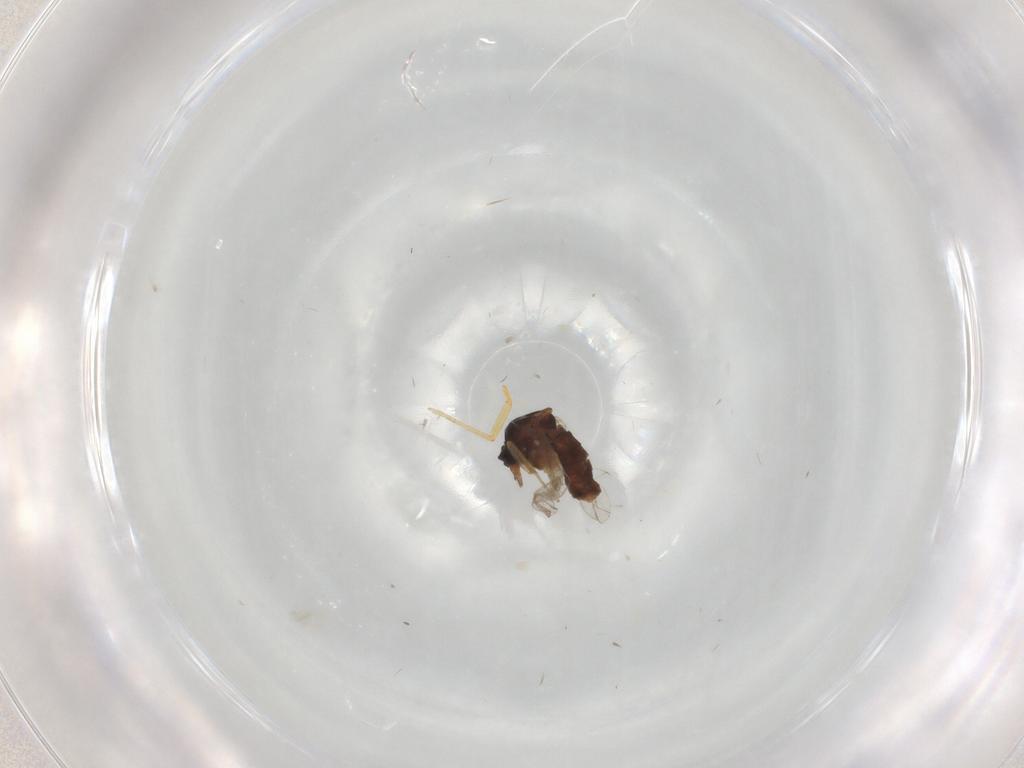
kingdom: Animalia
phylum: Arthropoda
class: Insecta
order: Diptera
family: Ceratopogonidae
